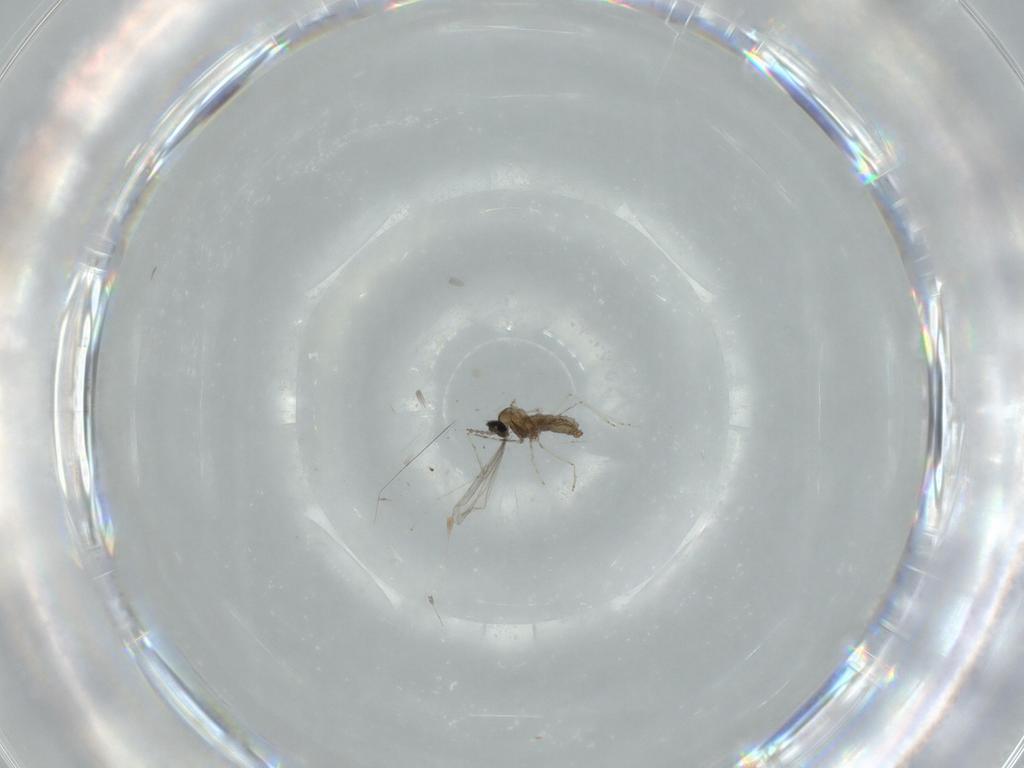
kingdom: Animalia
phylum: Arthropoda
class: Insecta
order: Diptera
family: Cecidomyiidae
